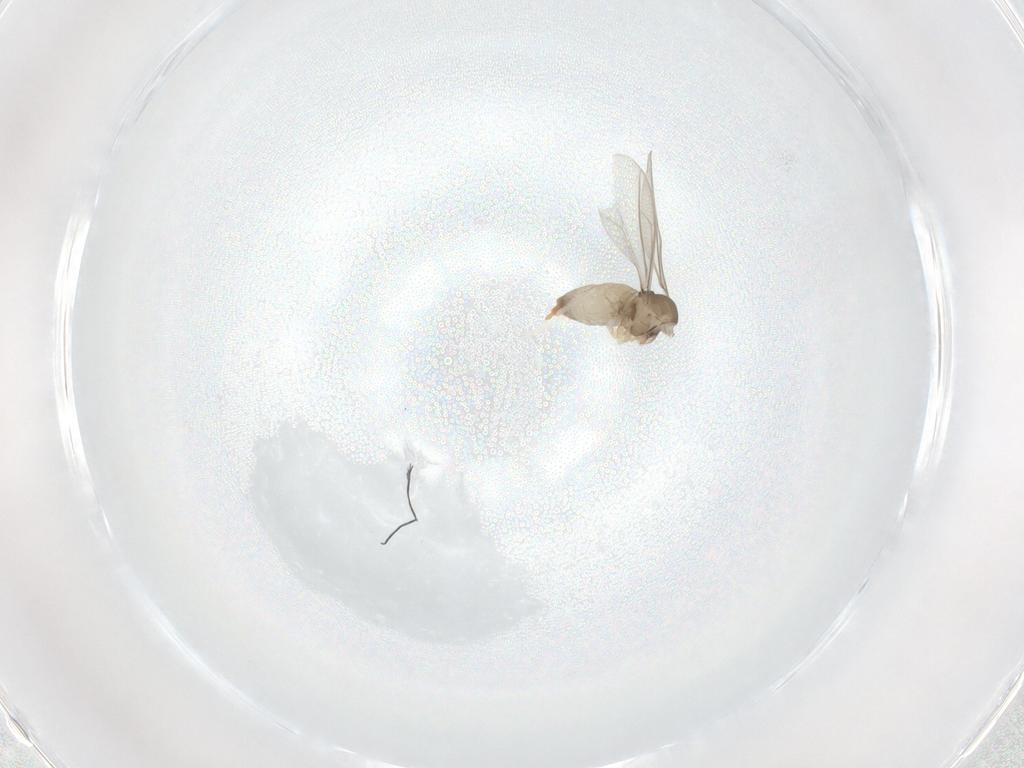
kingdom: Animalia
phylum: Arthropoda
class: Insecta
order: Diptera
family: Cecidomyiidae
